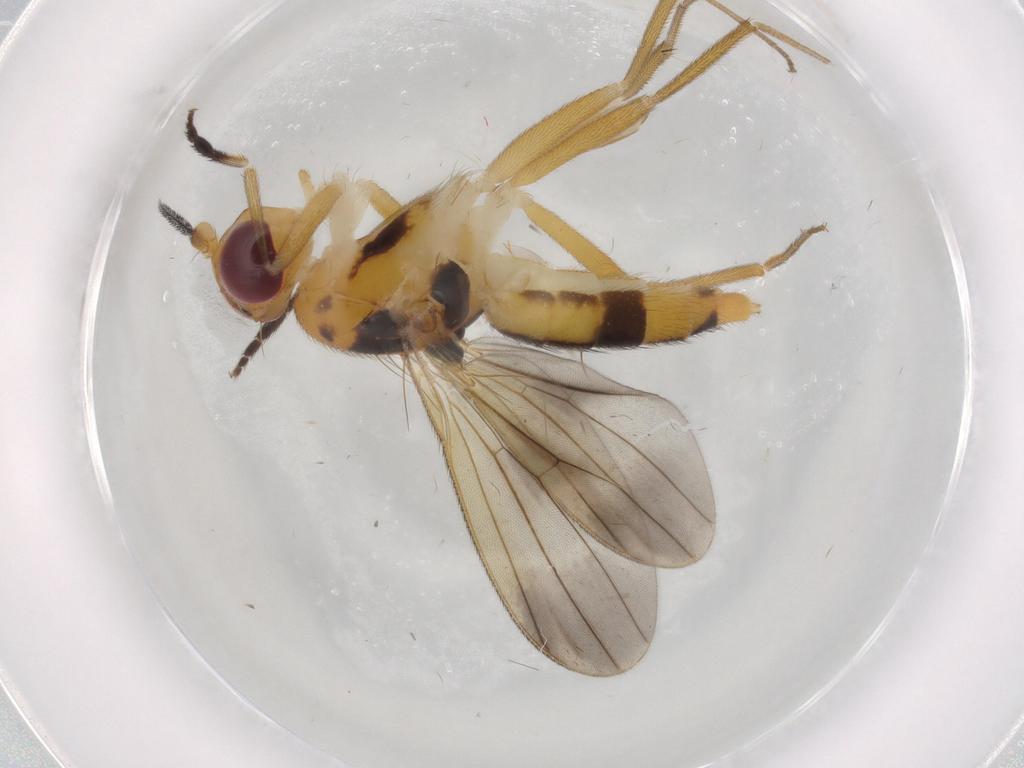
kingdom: Animalia
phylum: Arthropoda
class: Insecta
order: Diptera
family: Clusiidae
